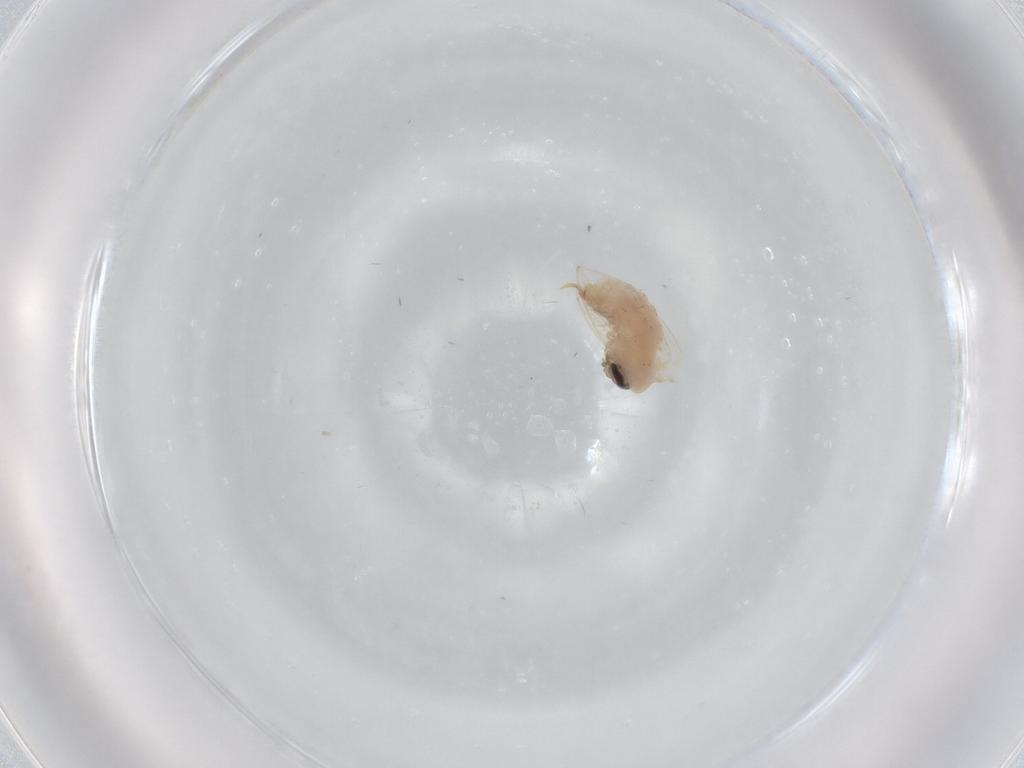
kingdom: Animalia
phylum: Arthropoda
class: Insecta
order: Diptera
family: Psychodidae
